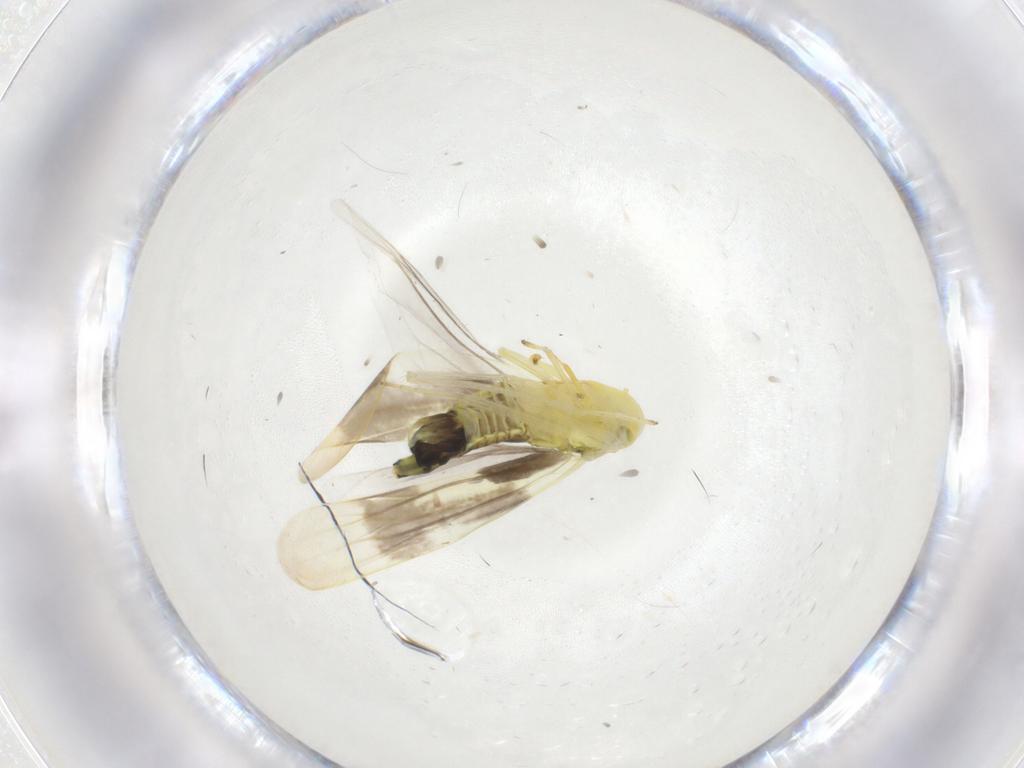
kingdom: Animalia
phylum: Arthropoda
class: Insecta
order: Hemiptera
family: Cicadellidae
